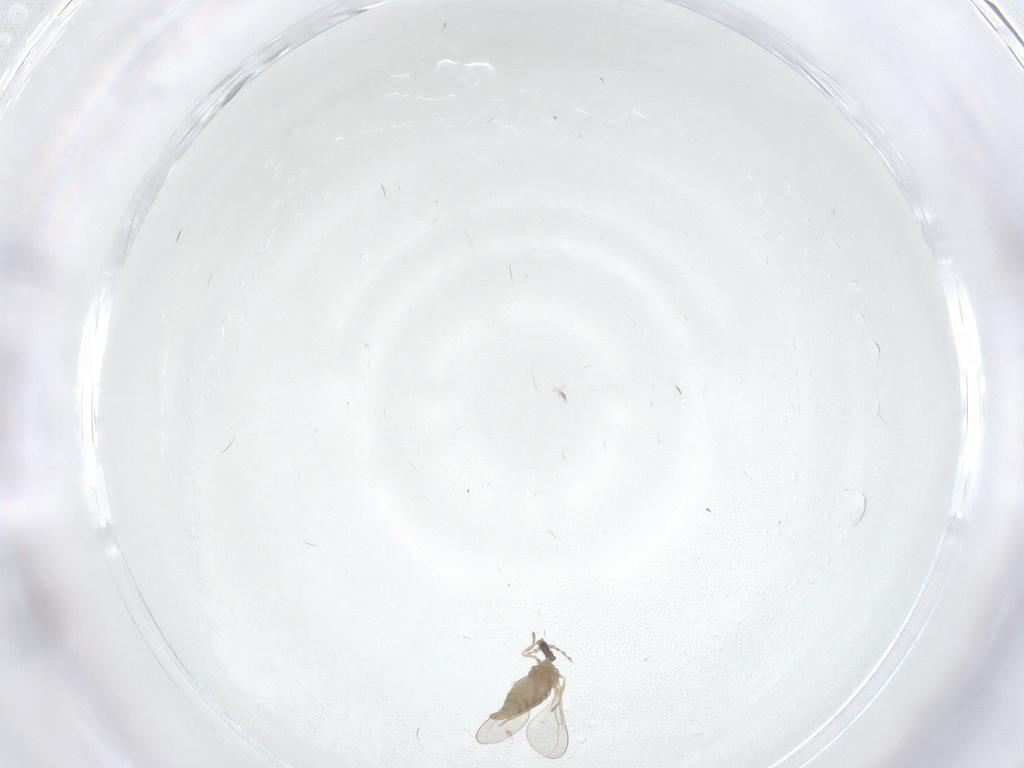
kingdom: Animalia
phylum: Arthropoda
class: Insecta
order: Diptera
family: Cecidomyiidae
